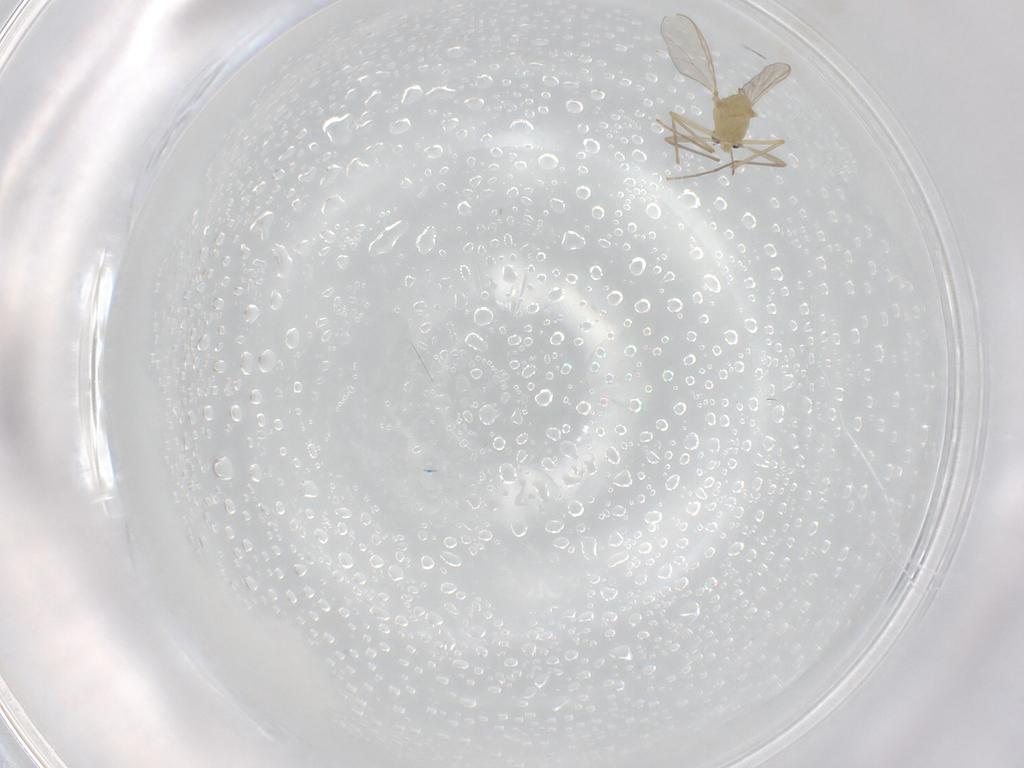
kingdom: Animalia
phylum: Arthropoda
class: Insecta
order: Diptera
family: Chironomidae
